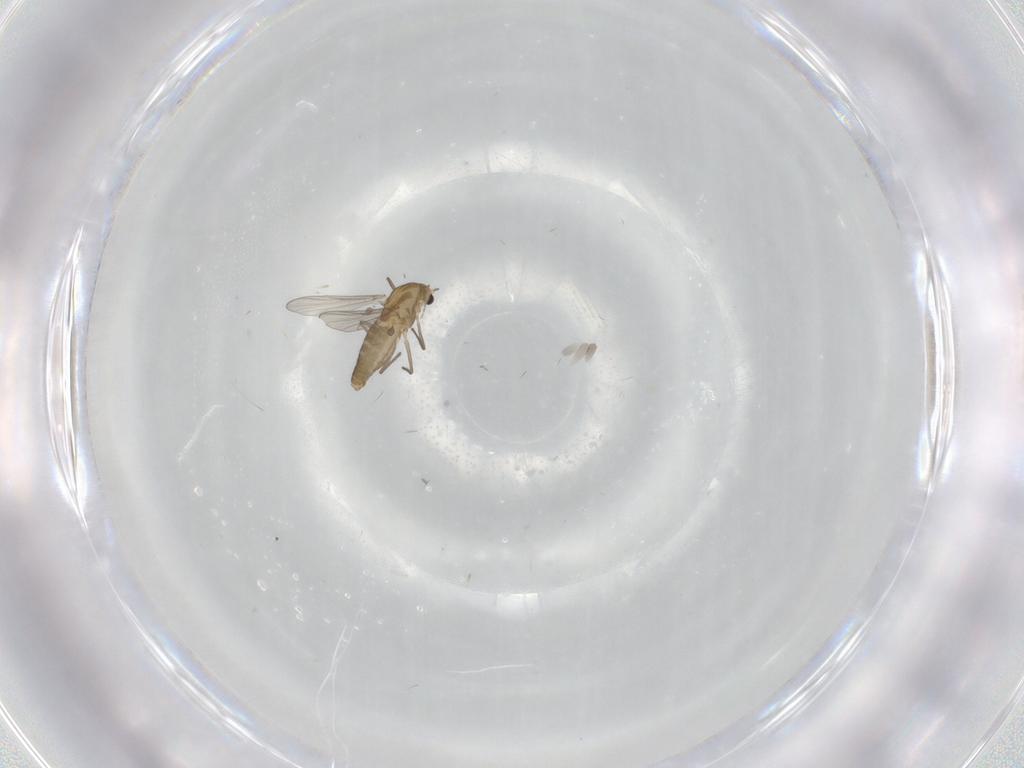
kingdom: Animalia
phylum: Arthropoda
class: Insecta
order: Diptera
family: Chironomidae
